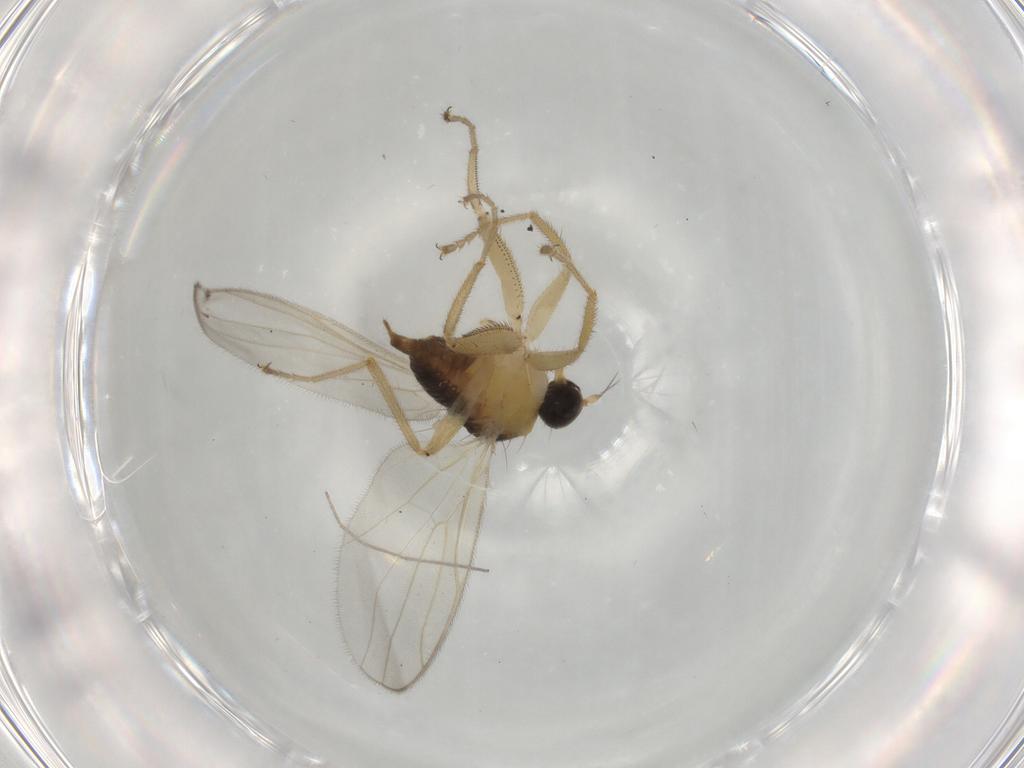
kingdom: Animalia
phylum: Arthropoda
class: Insecta
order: Diptera
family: Hybotidae
